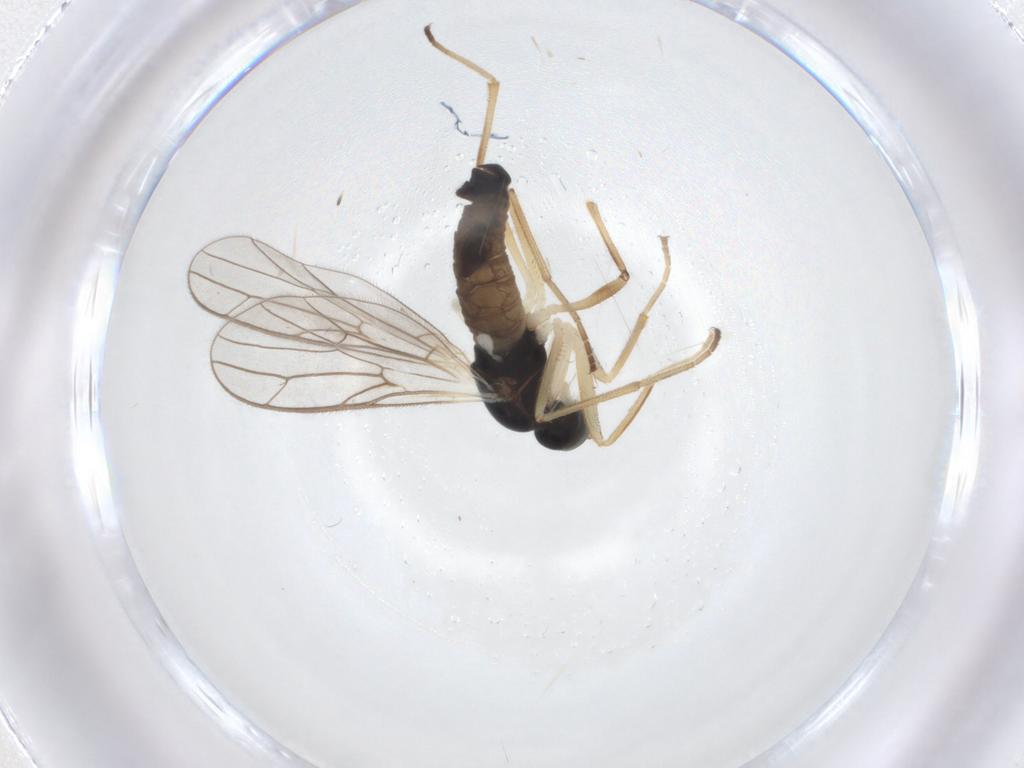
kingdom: Animalia
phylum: Arthropoda
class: Insecta
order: Diptera
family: Empididae
